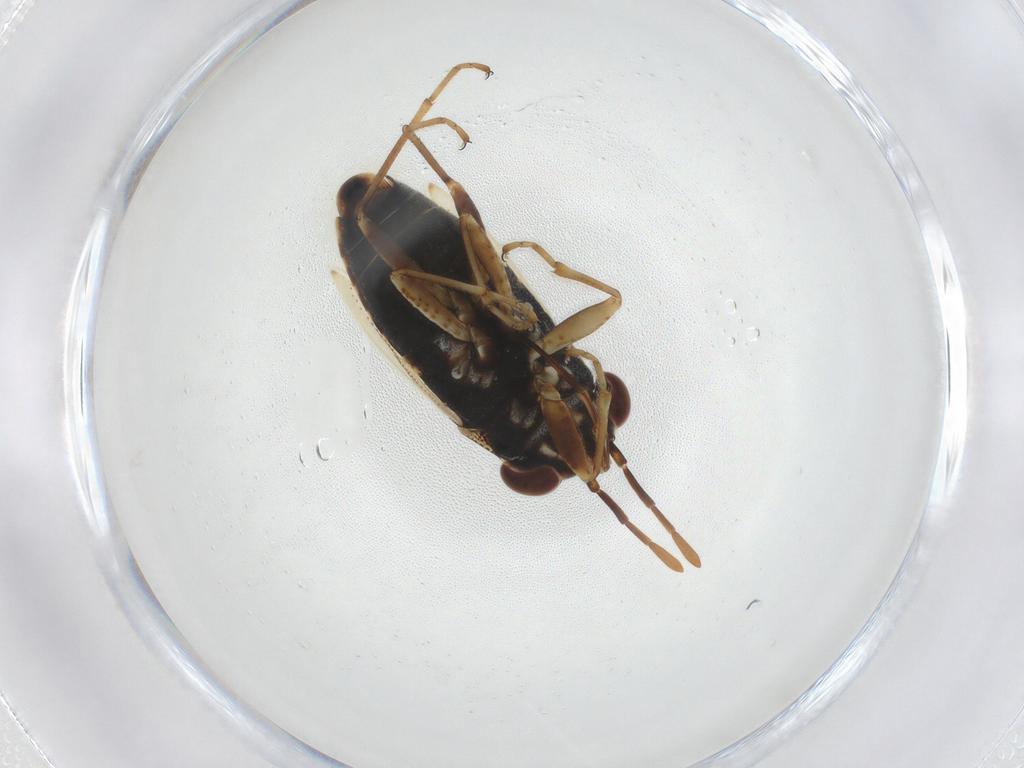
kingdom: Animalia
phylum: Arthropoda
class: Insecta
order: Hemiptera
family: Geocoridae
